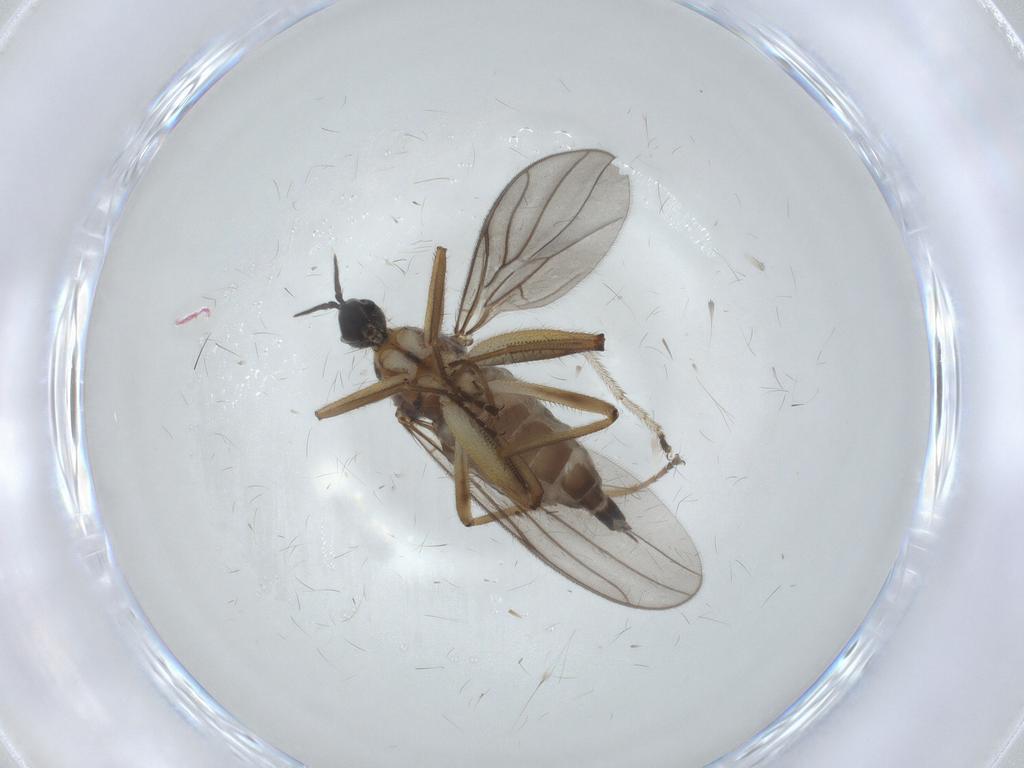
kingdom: Animalia
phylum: Arthropoda
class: Insecta
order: Diptera
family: Hybotidae
